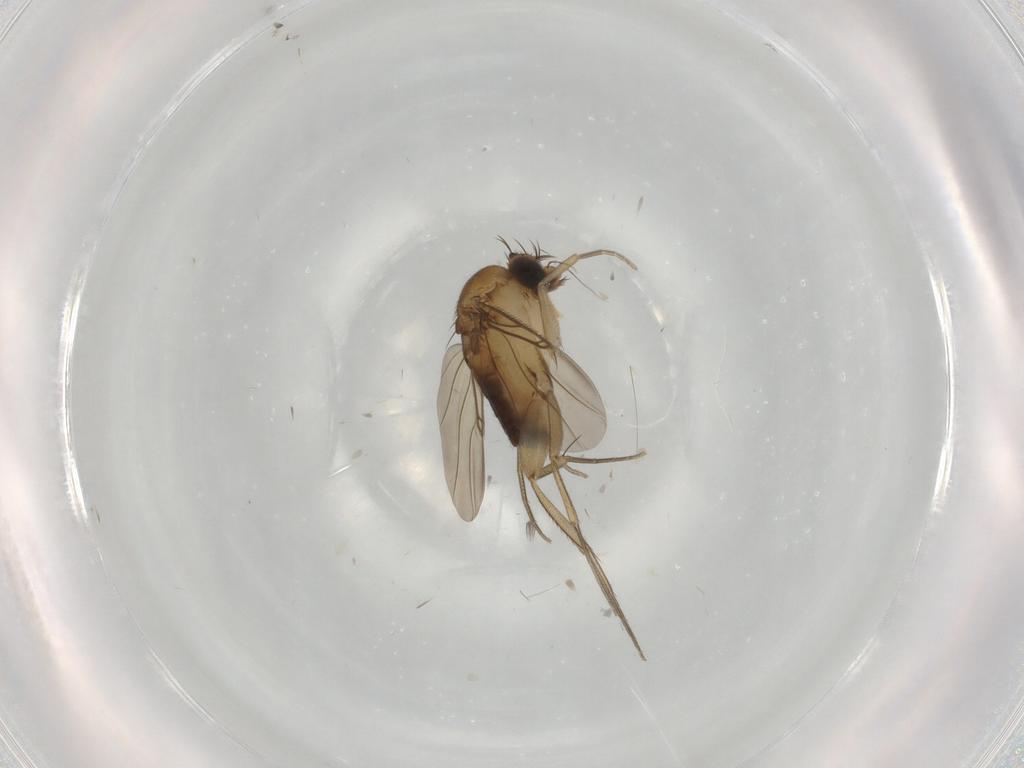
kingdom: Animalia
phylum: Arthropoda
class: Insecta
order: Diptera
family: Phoridae
